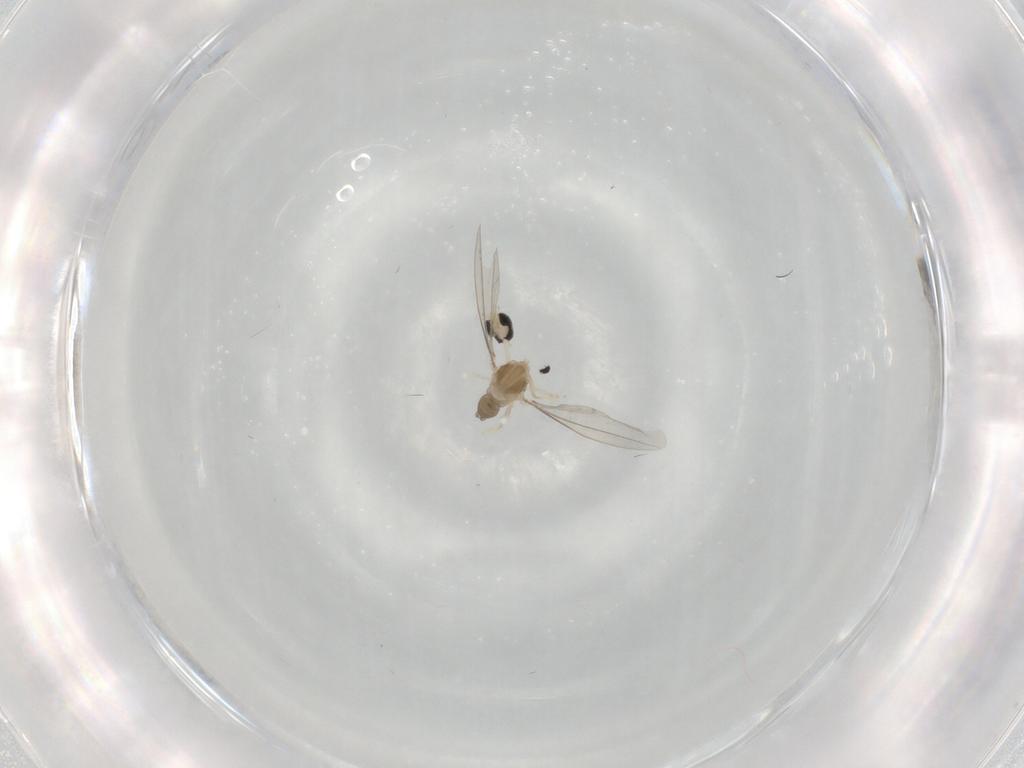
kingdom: Animalia
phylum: Arthropoda
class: Insecta
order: Diptera
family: Cecidomyiidae
